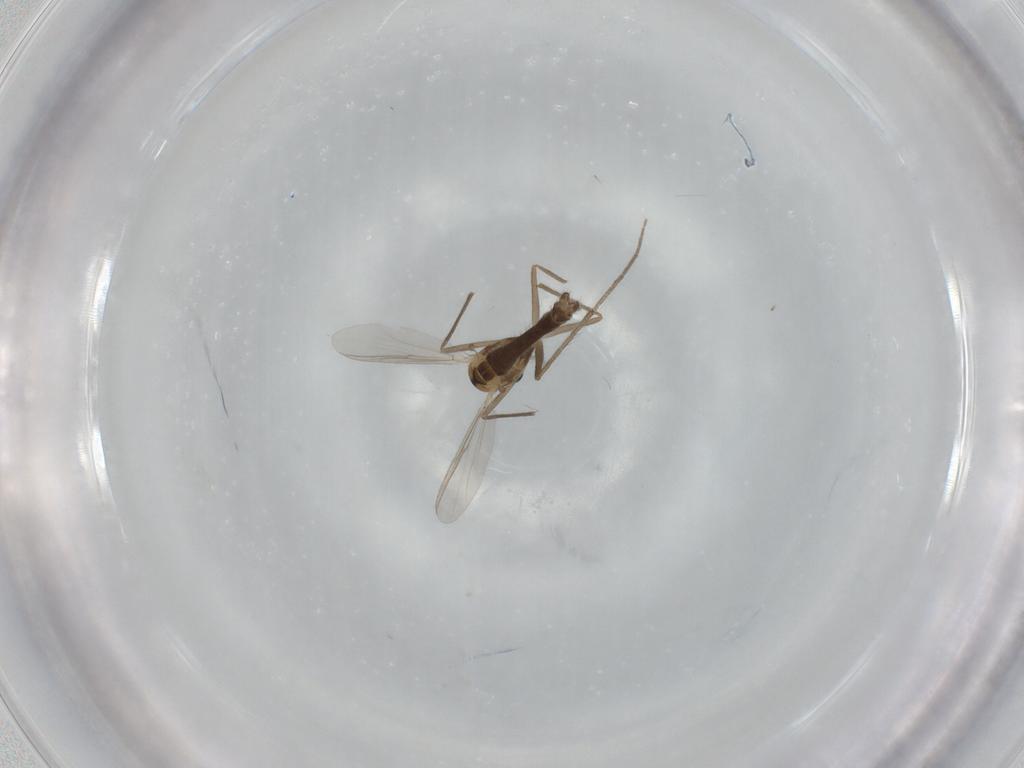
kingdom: Animalia
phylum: Arthropoda
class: Insecta
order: Diptera
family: Chironomidae
